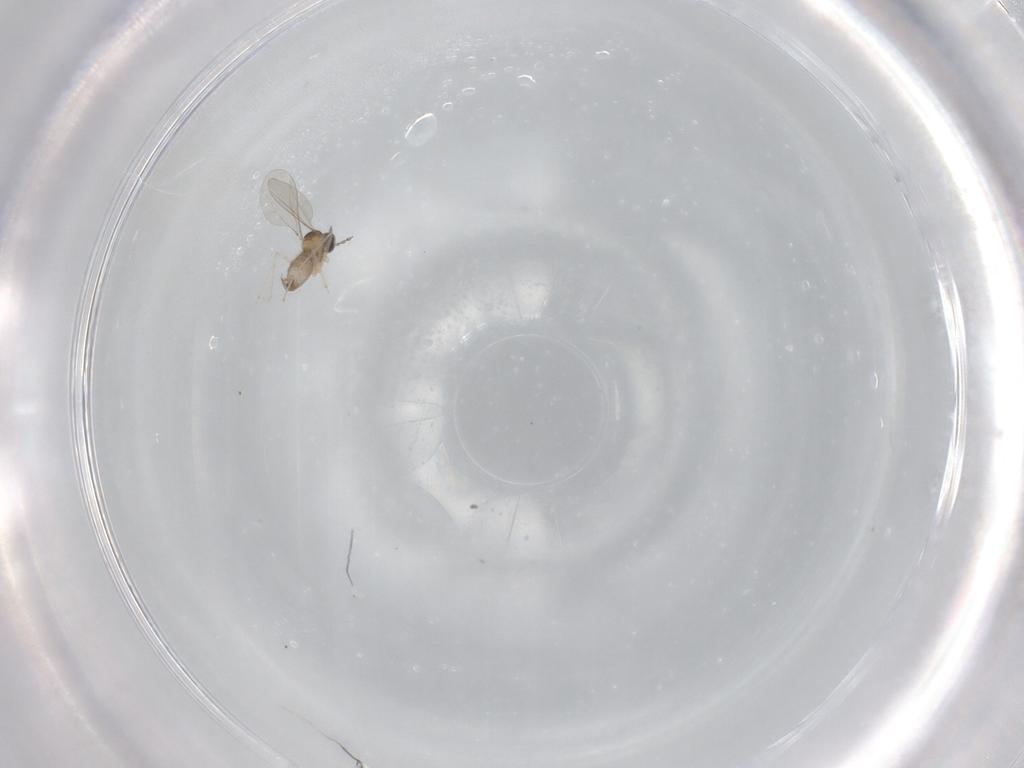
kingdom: Animalia
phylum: Arthropoda
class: Insecta
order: Diptera
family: Cecidomyiidae
